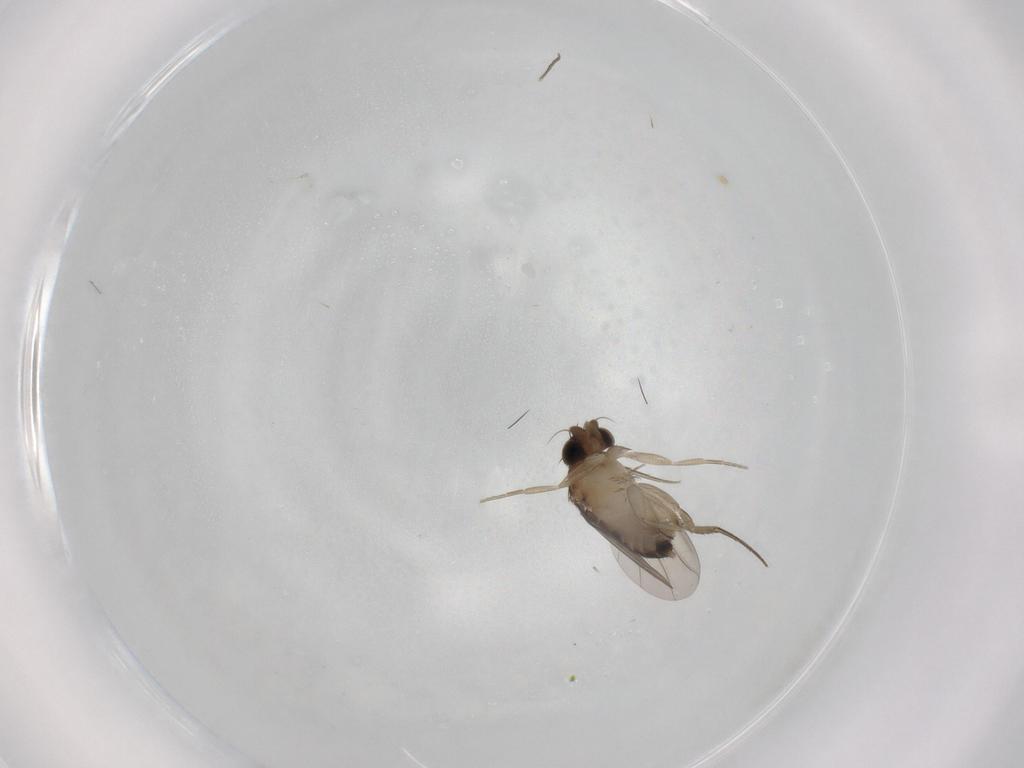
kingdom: Animalia
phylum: Arthropoda
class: Insecta
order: Diptera
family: Phoridae
